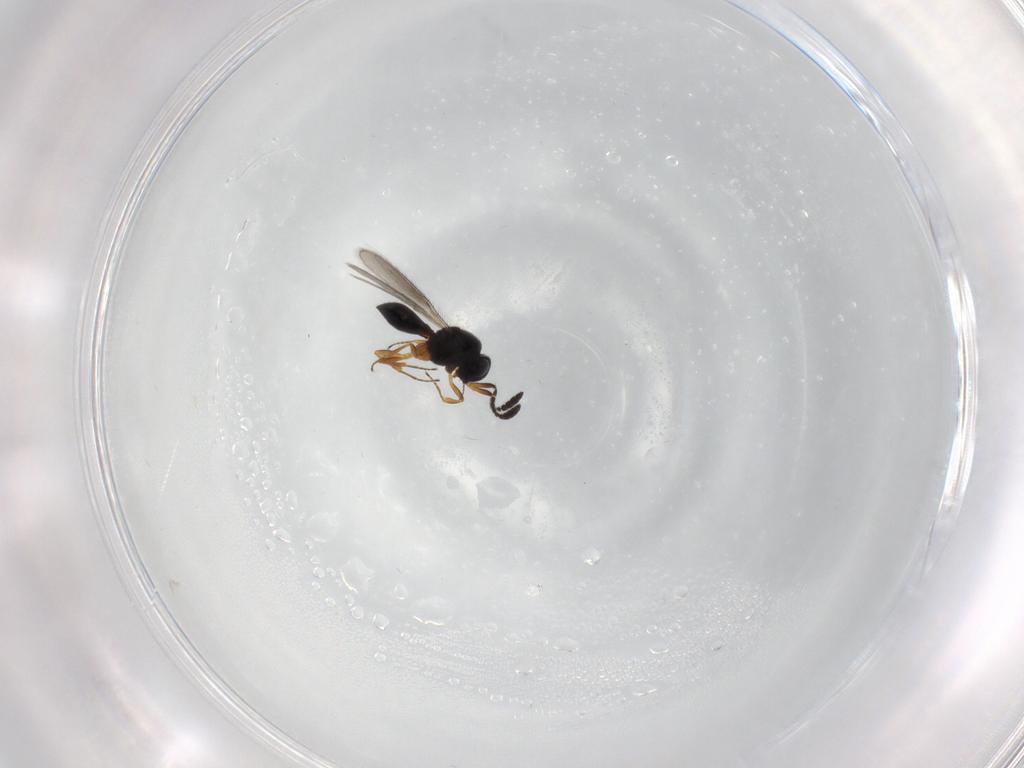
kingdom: Animalia
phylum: Arthropoda
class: Insecta
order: Hymenoptera
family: Scelionidae
